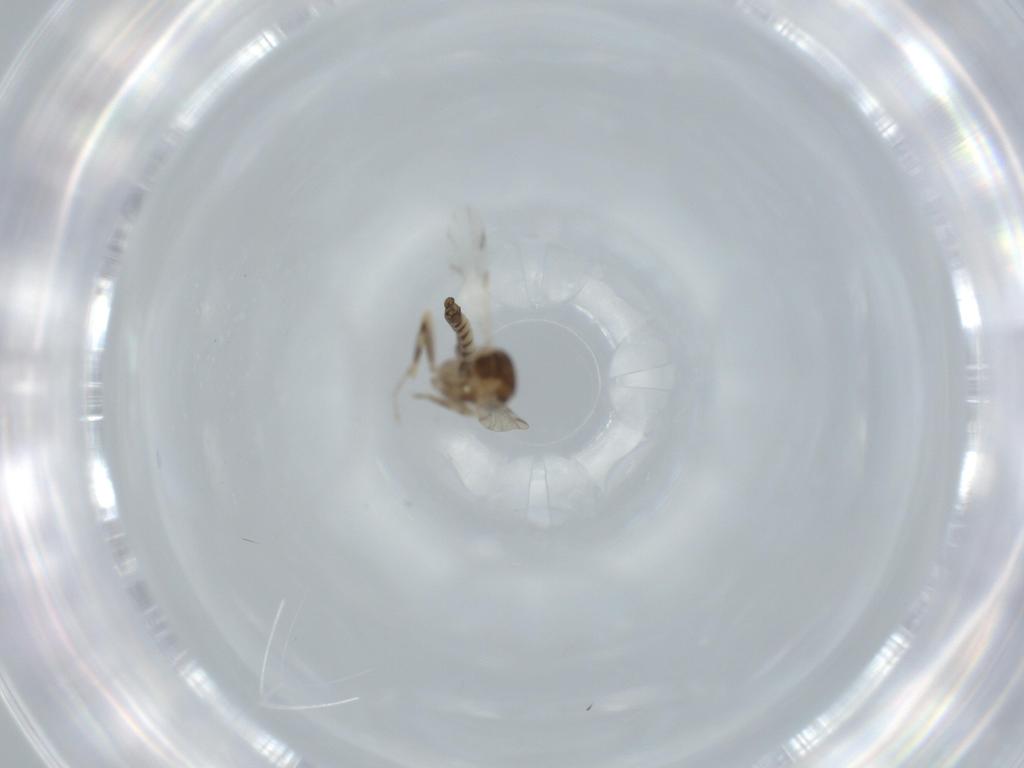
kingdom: Animalia
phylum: Arthropoda
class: Insecta
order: Diptera
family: Ceratopogonidae
